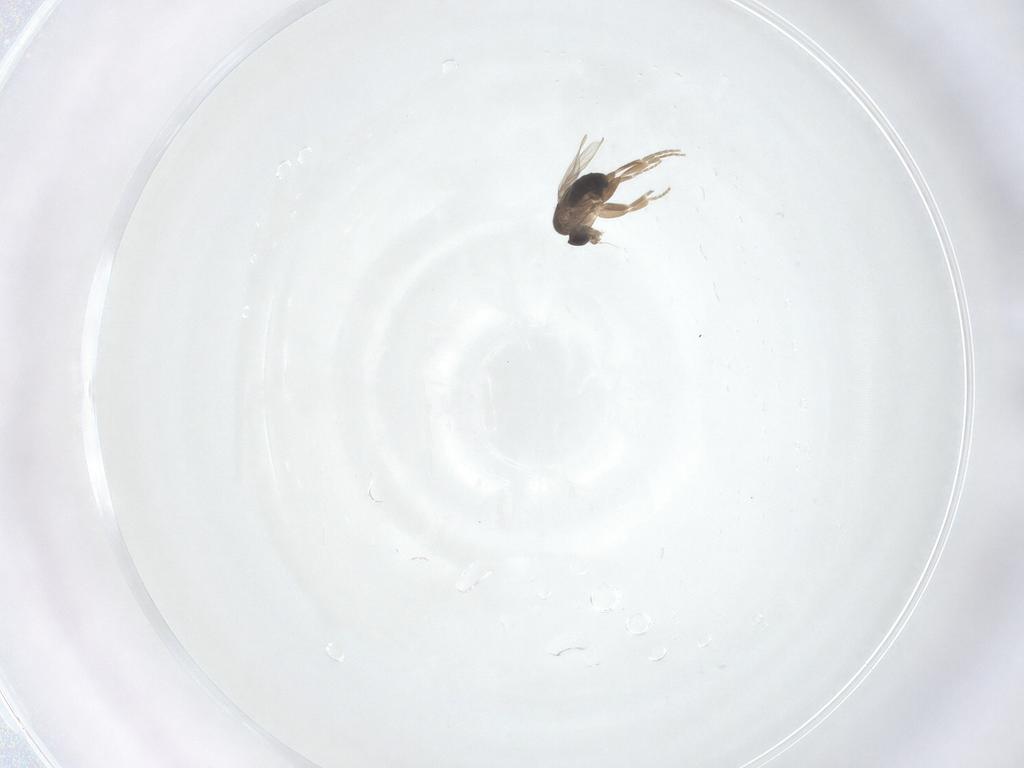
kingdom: Animalia
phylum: Arthropoda
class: Insecta
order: Diptera
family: Phoridae
